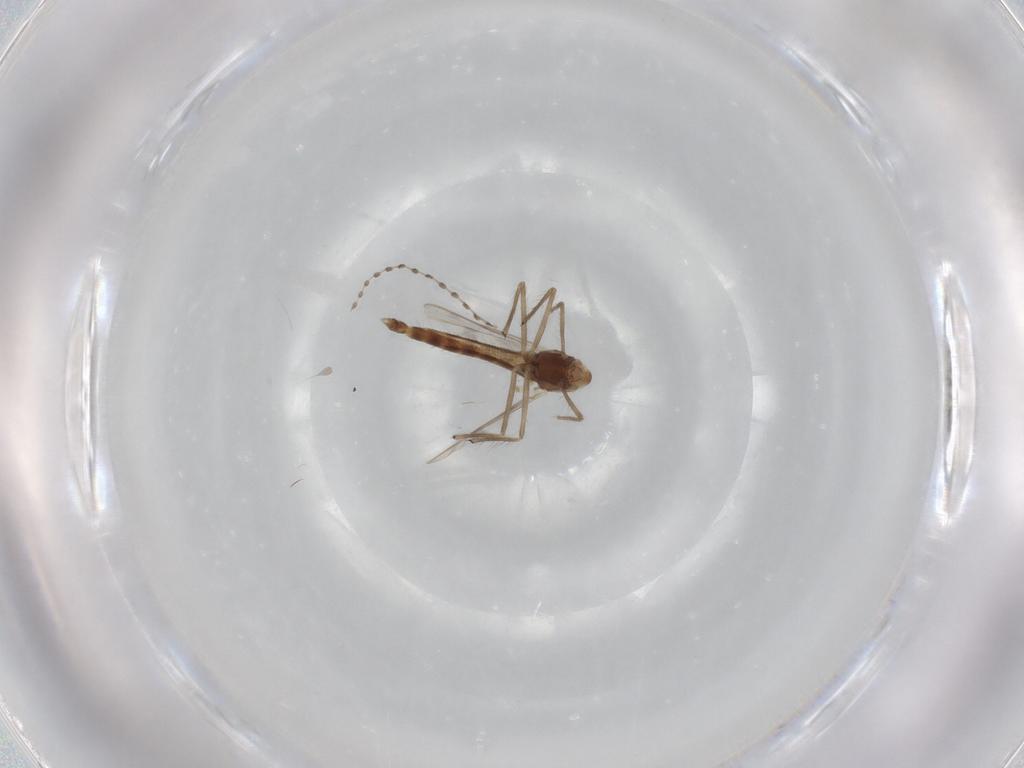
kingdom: Animalia
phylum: Arthropoda
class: Insecta
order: Diptera
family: Chironomidae
